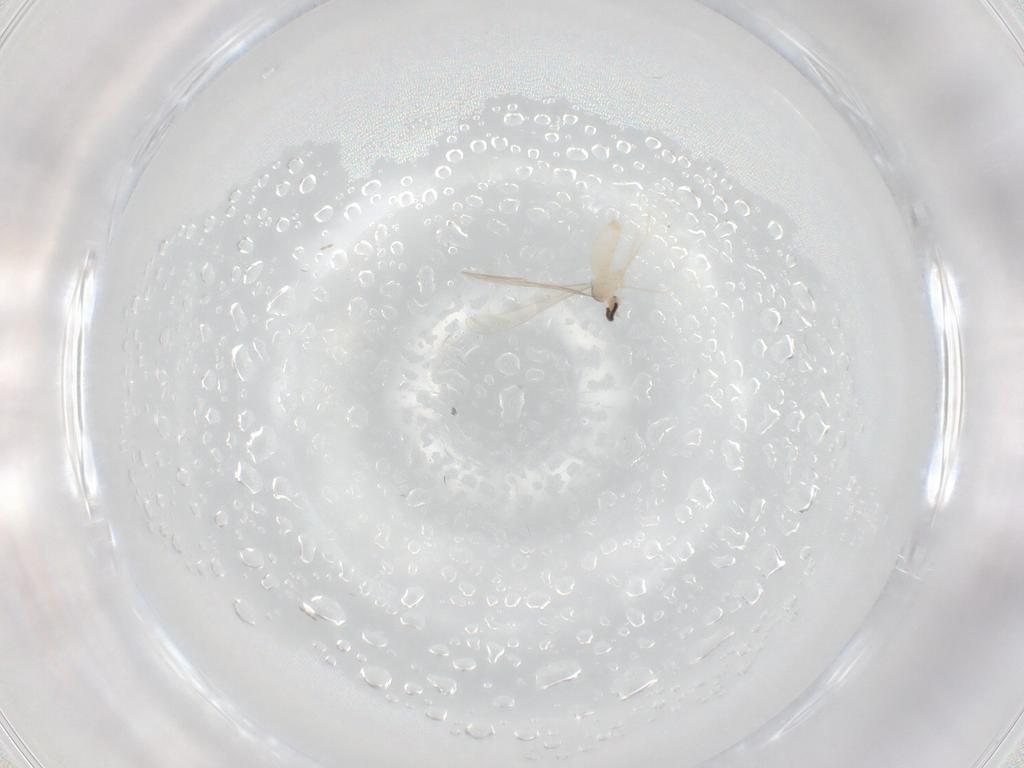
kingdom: Animalia
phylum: Arthropoda
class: Insecta
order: Diptera
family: Cecidomyiidae
